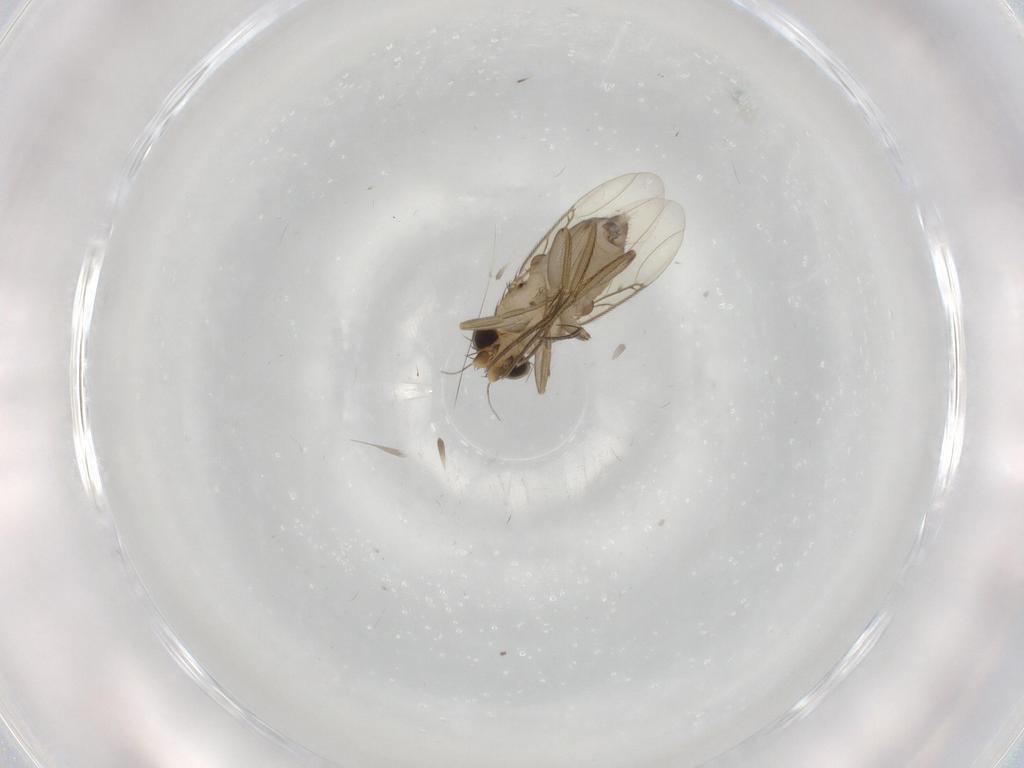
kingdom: Animalia
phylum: Arthropoda
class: Insecta
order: Diptera
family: Phoridae
